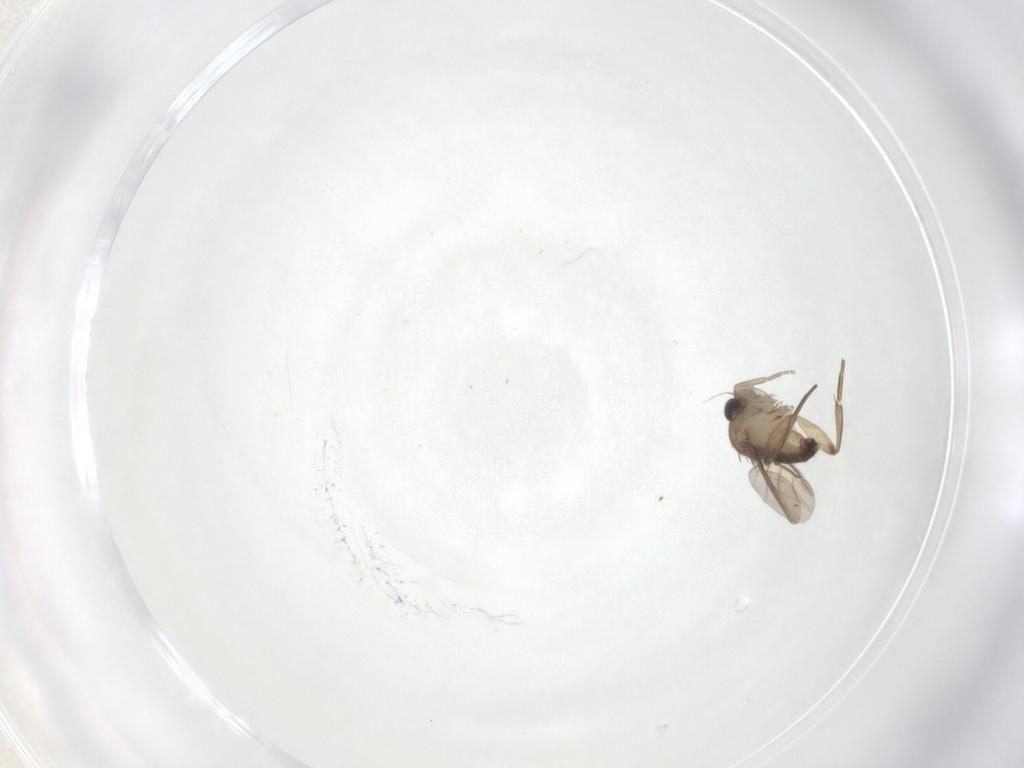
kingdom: Animalia
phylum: Arthropoda
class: Insecta
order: Diptera
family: Phoridae
